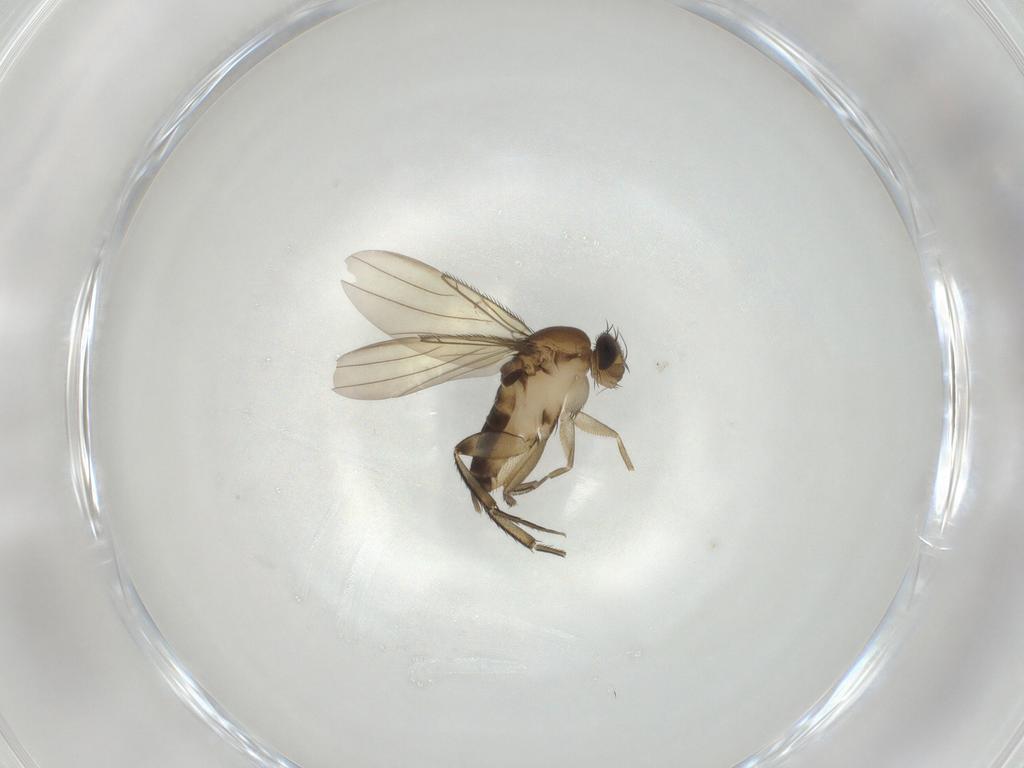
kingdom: Animalia
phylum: Arthropoda
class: Insecta
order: Diptera
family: Phoridae
